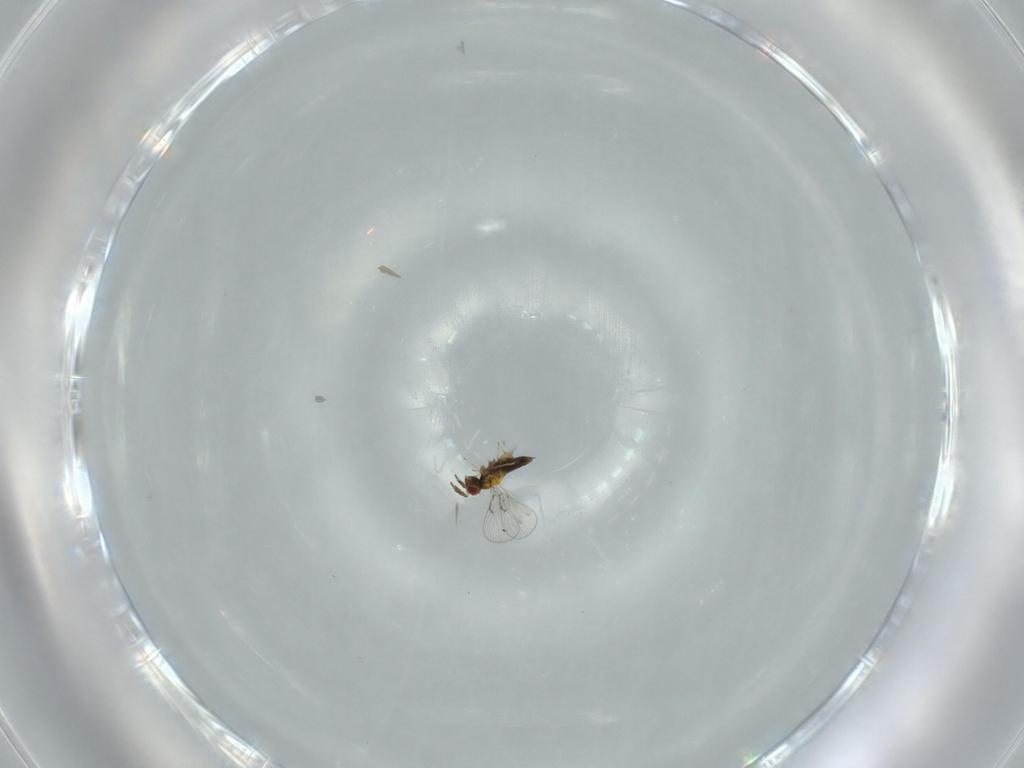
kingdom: Animalia
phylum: Arthropoda
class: Insecta
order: Hymenoptera
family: Trichogrammatidae
